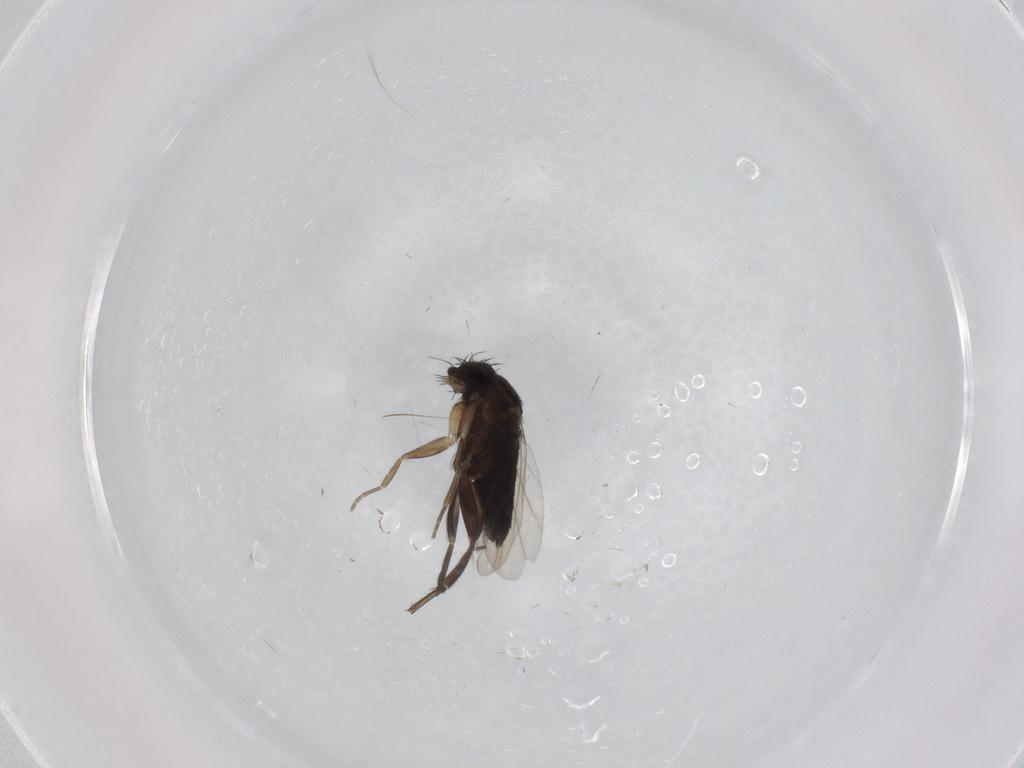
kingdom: Animalia
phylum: Arthropoda
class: Insecta
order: Diptera
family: Phoridae
